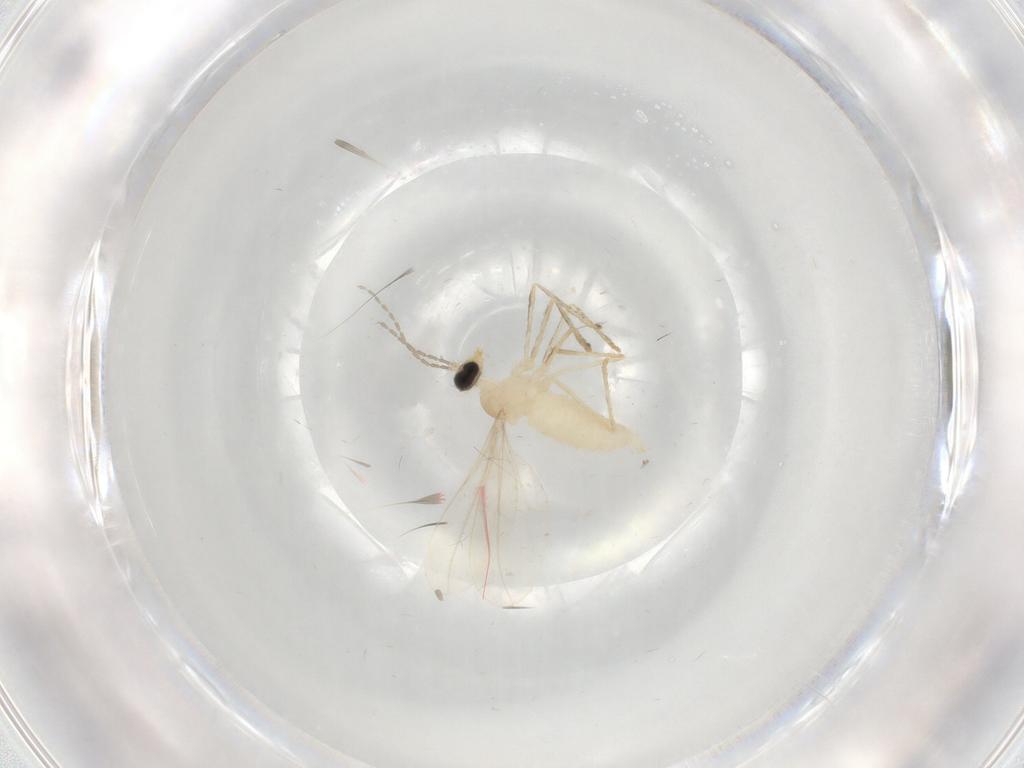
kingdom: Animalia
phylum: Arthropoda
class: Insecta
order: Diptera
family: Cecidomyiidae
